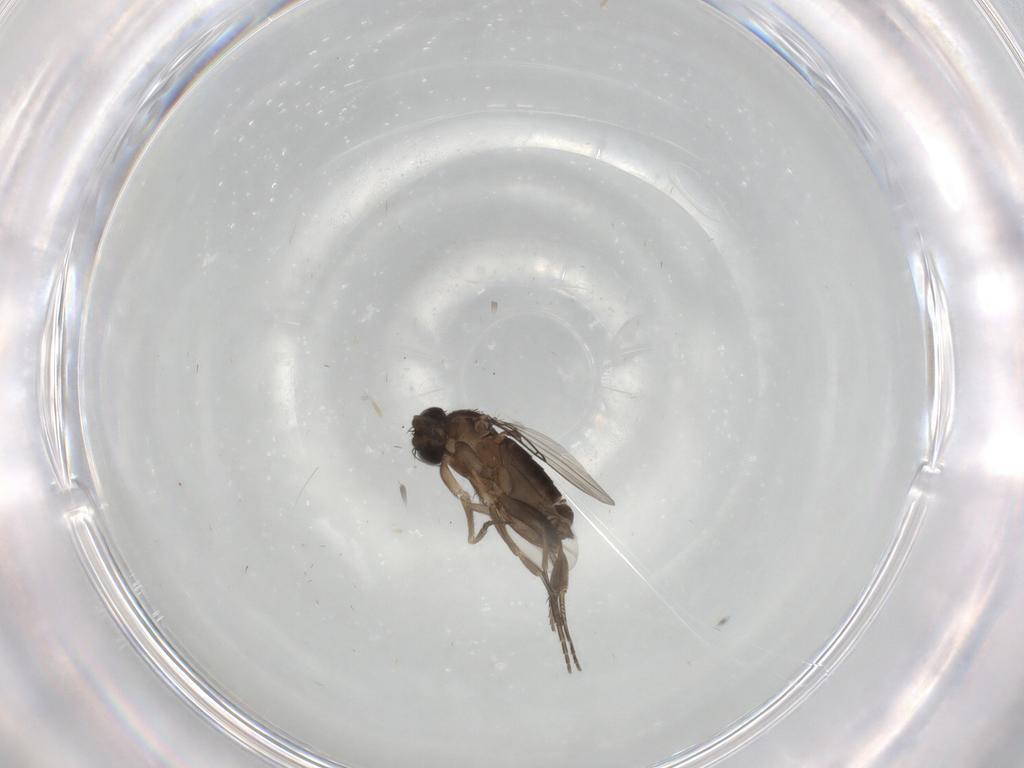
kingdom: Animalia
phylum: Arthropoda
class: Insecta
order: Diptera
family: Phoridae
